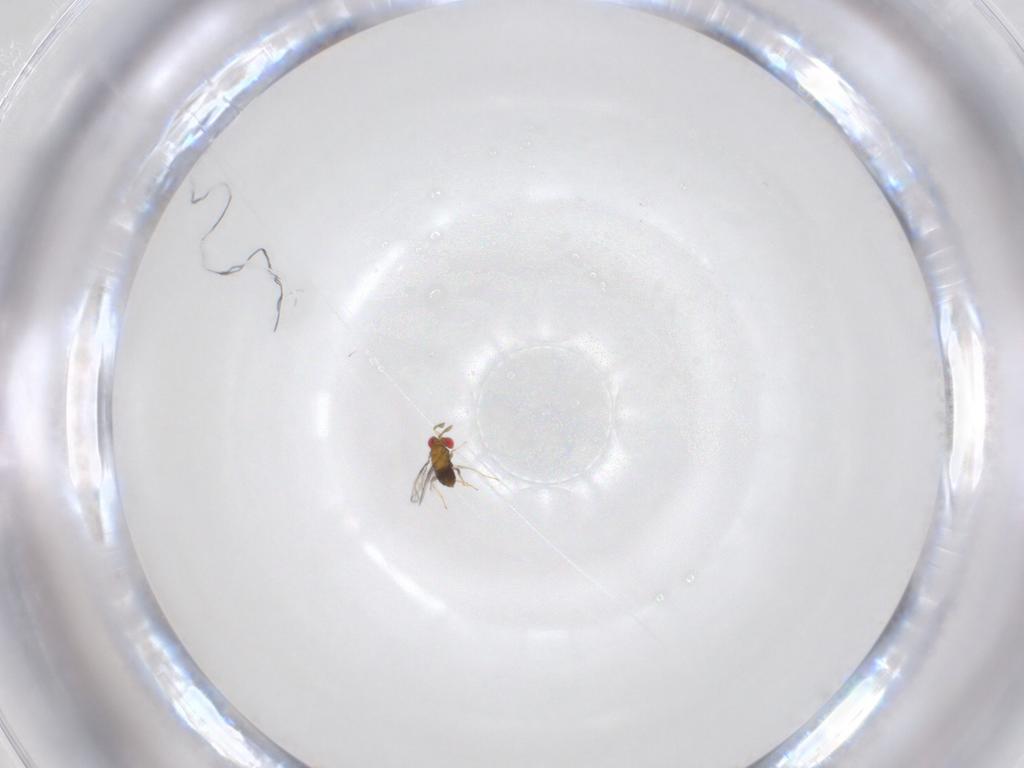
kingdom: Animalia
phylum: Arthropoda
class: Insecta
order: Hymenoptera
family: Trichogrammatidae
